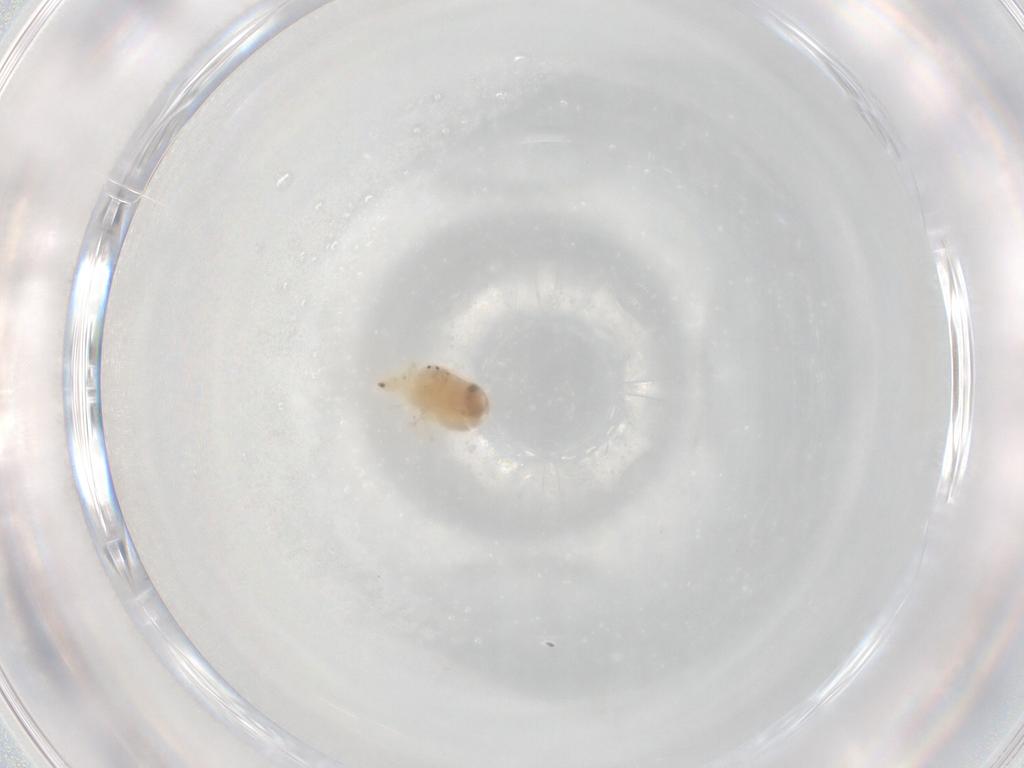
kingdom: Animalia
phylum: Arthropoda
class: Arachnida
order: Trombidiformes
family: Bdellidae
